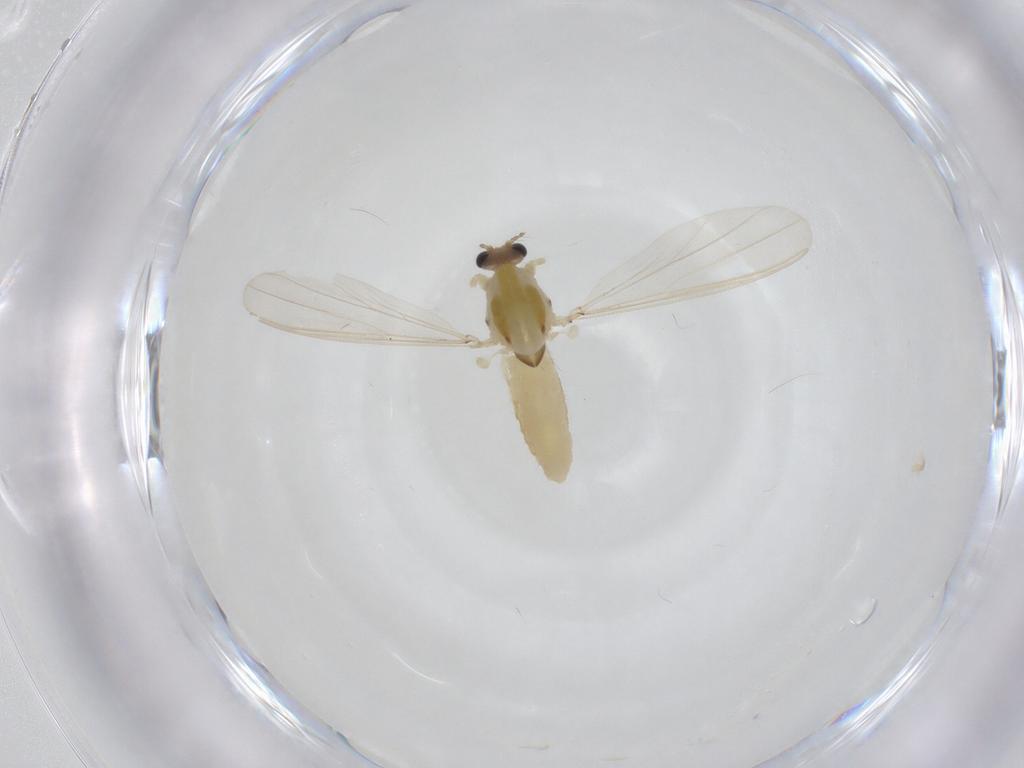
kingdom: Animalia
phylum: Arthropoda
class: Insecta
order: Diptera
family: Chironomidae
